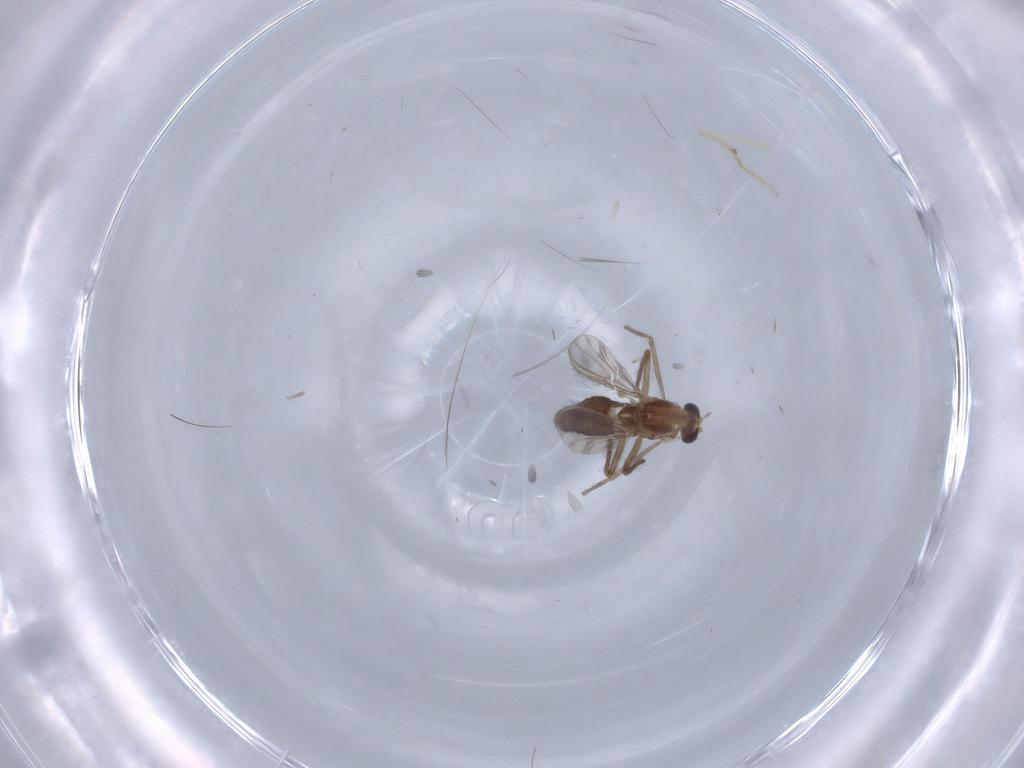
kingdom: Animalia
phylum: Arthropoda
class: Insecta
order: Diptera
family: Chironomidae
